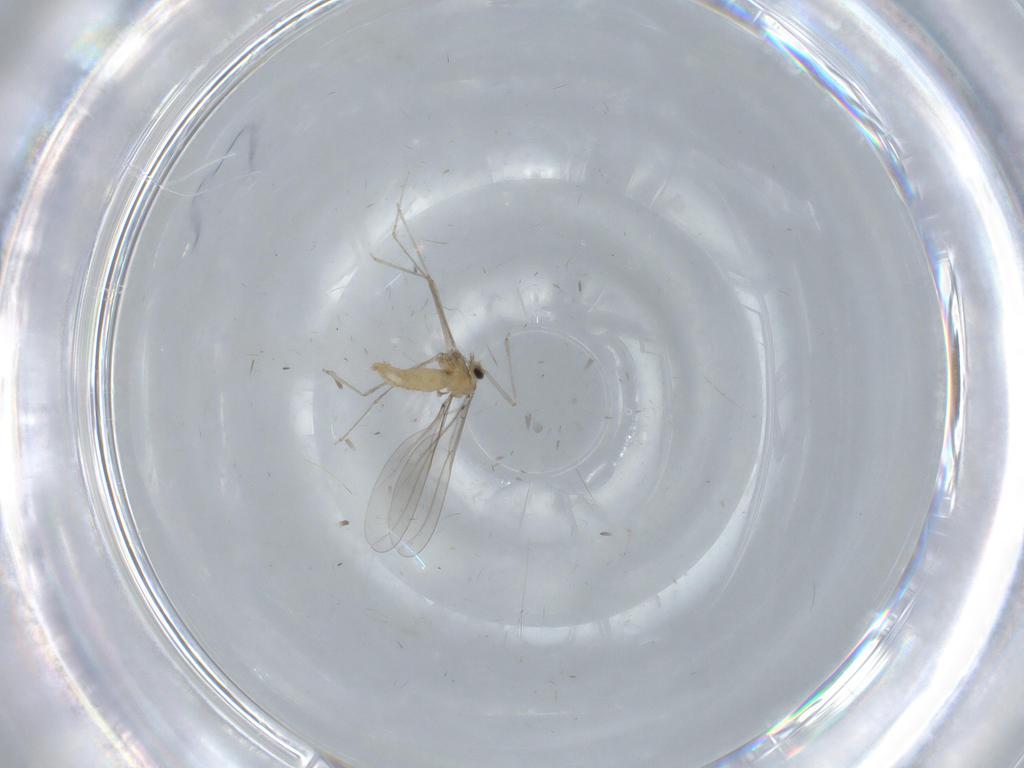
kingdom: Animalia
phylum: Arthropoda
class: Insecta
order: Diptera
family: Cecidomyiidae
